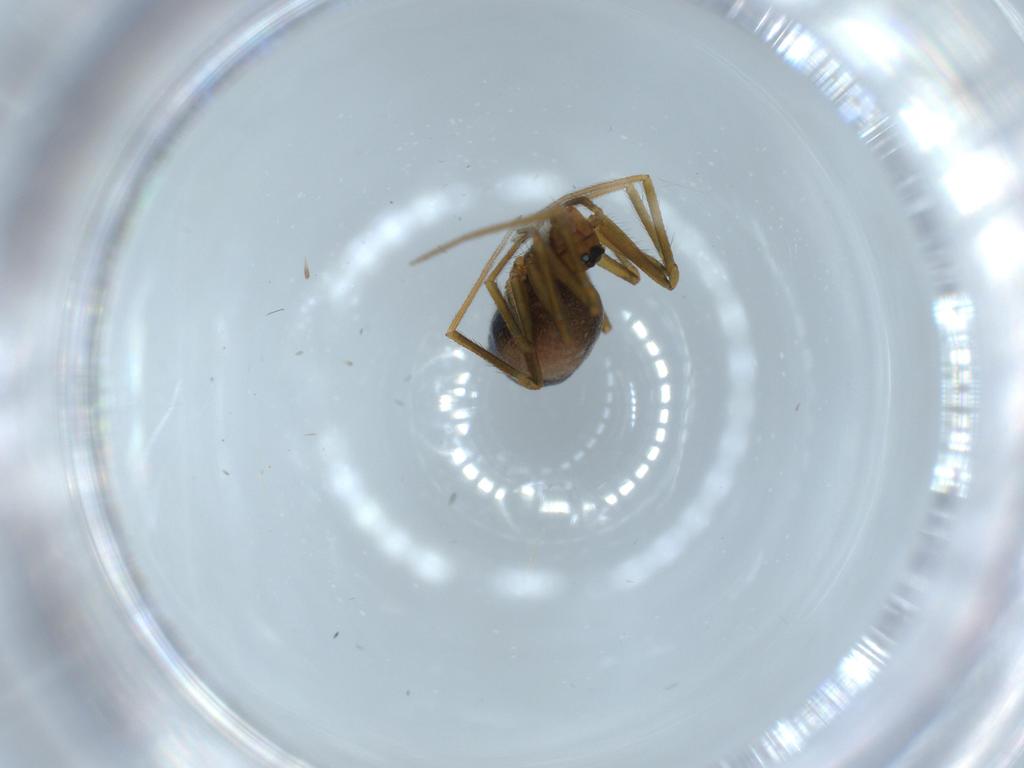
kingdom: Animalia
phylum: Arthropoda
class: Arachnida
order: Araneae
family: Linyphiidae
